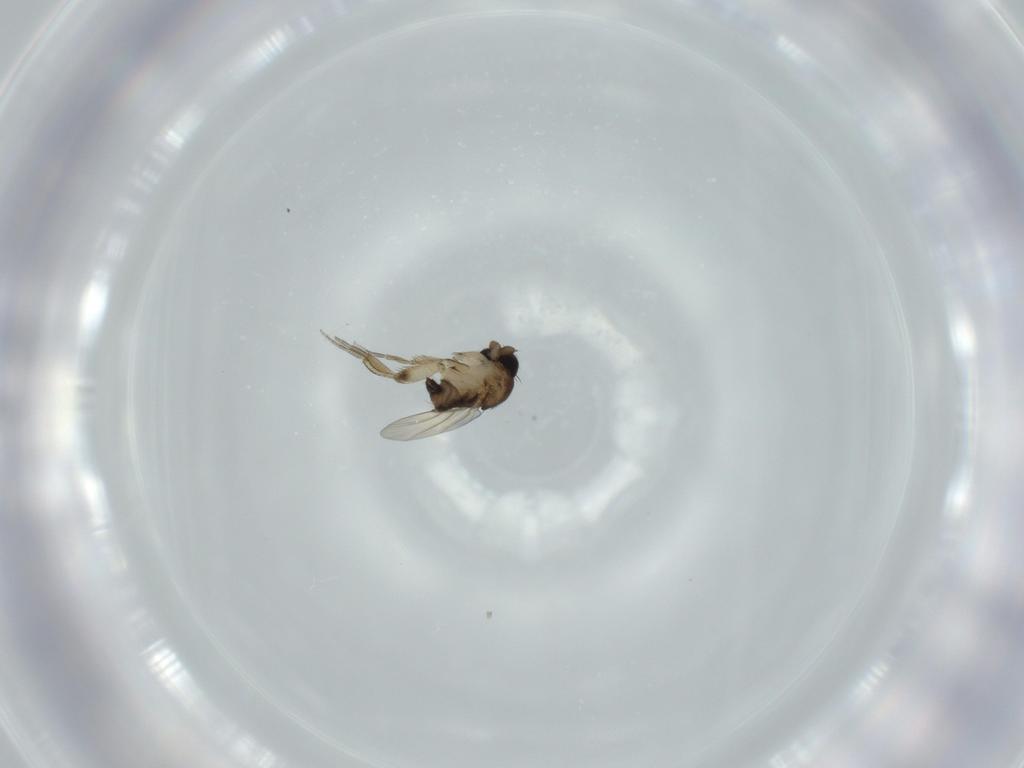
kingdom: Animalia
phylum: Arthropoda
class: Insecta
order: Diptera
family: Phoridae
